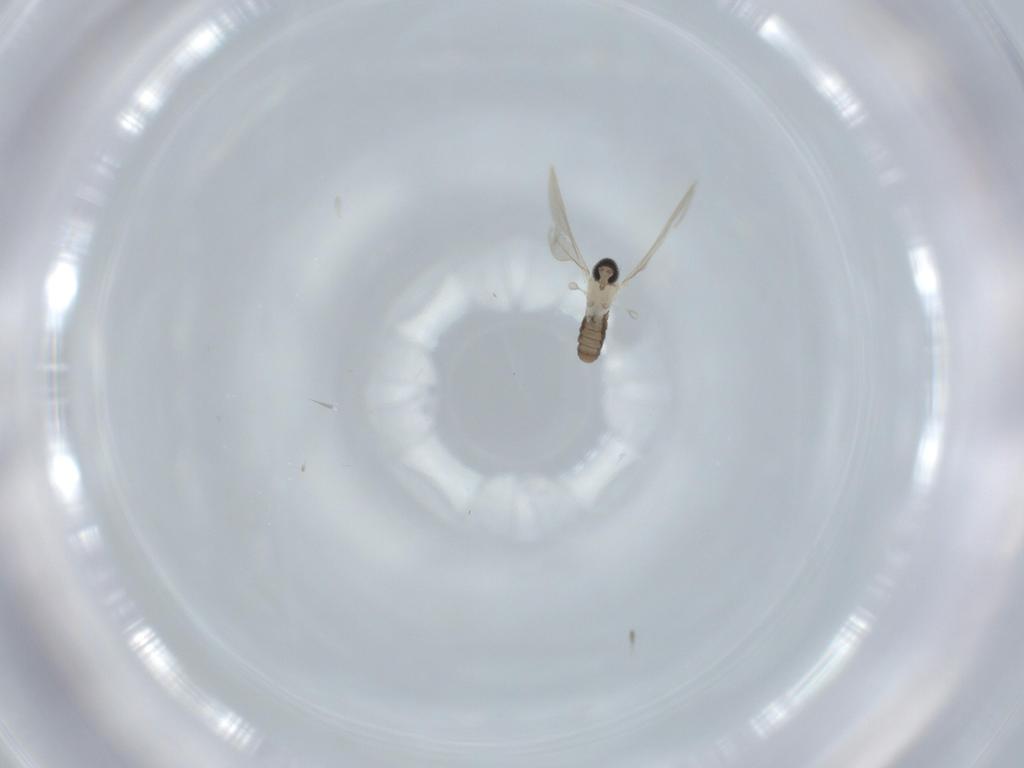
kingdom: Animalia
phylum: Arthropoda
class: Insecta
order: Diptera
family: Cecidomyiidae
